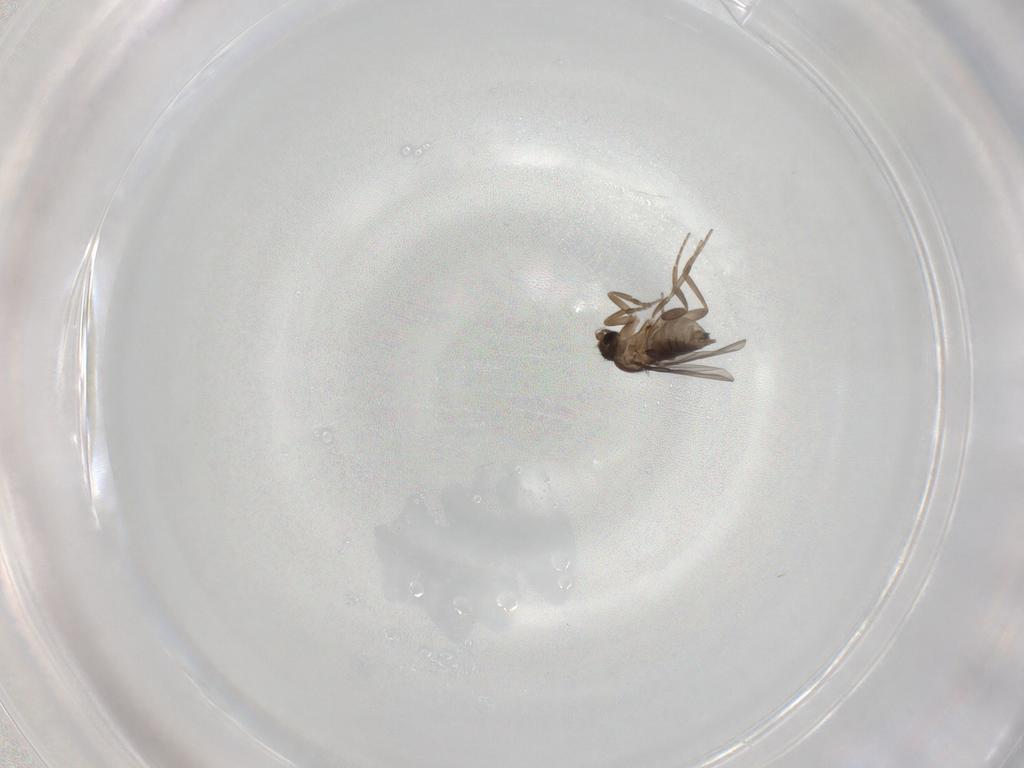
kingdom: Animalia
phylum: Arthropoda
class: Insecta
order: Diptera
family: Phoridae
